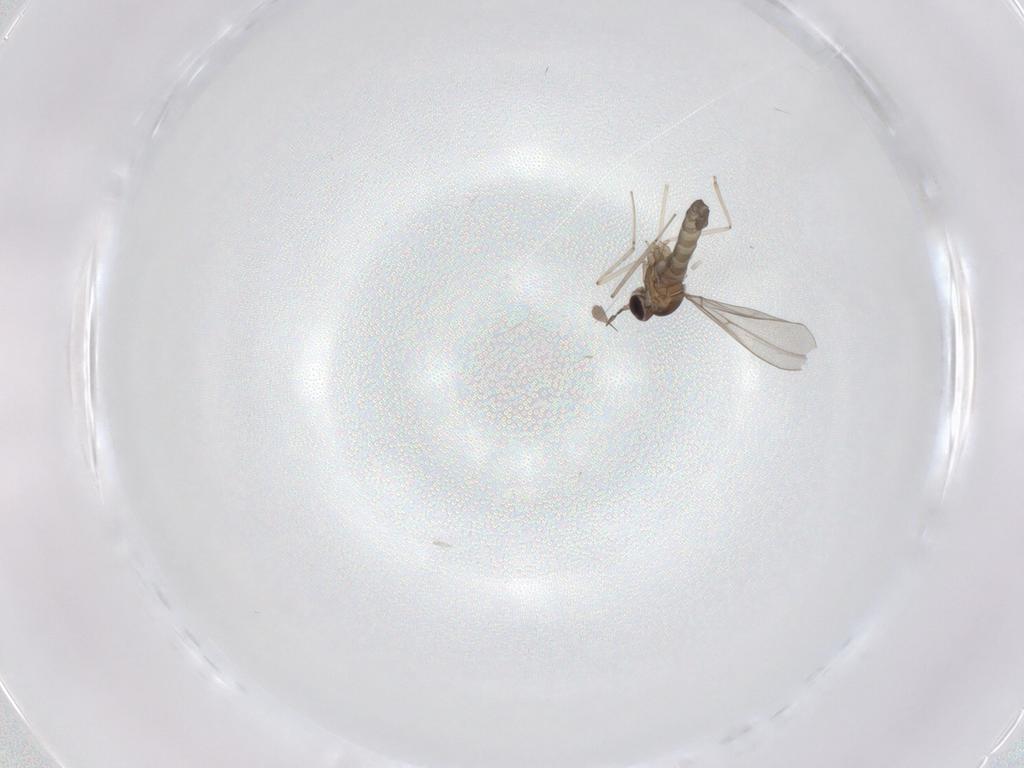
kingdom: Animalia
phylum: Arthropoda
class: Insecta
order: Diptera
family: Cecidomyiidae
